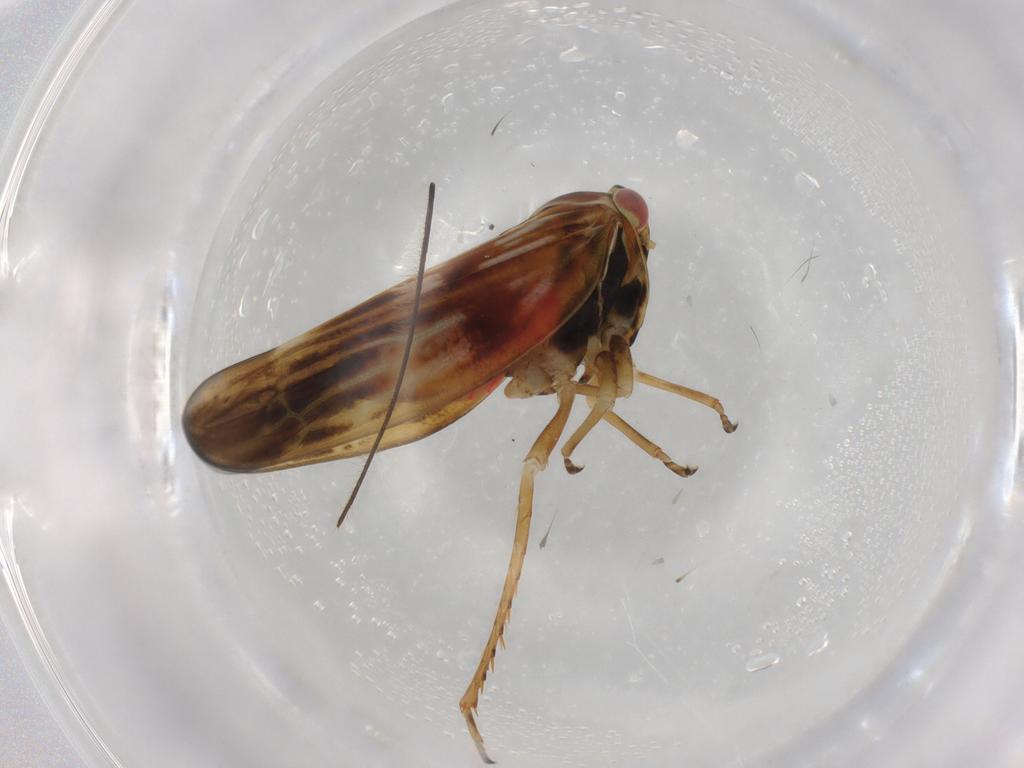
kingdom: Animalia
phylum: Arthropoda
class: Insecta
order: Hemiptera
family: Cicadellidae
